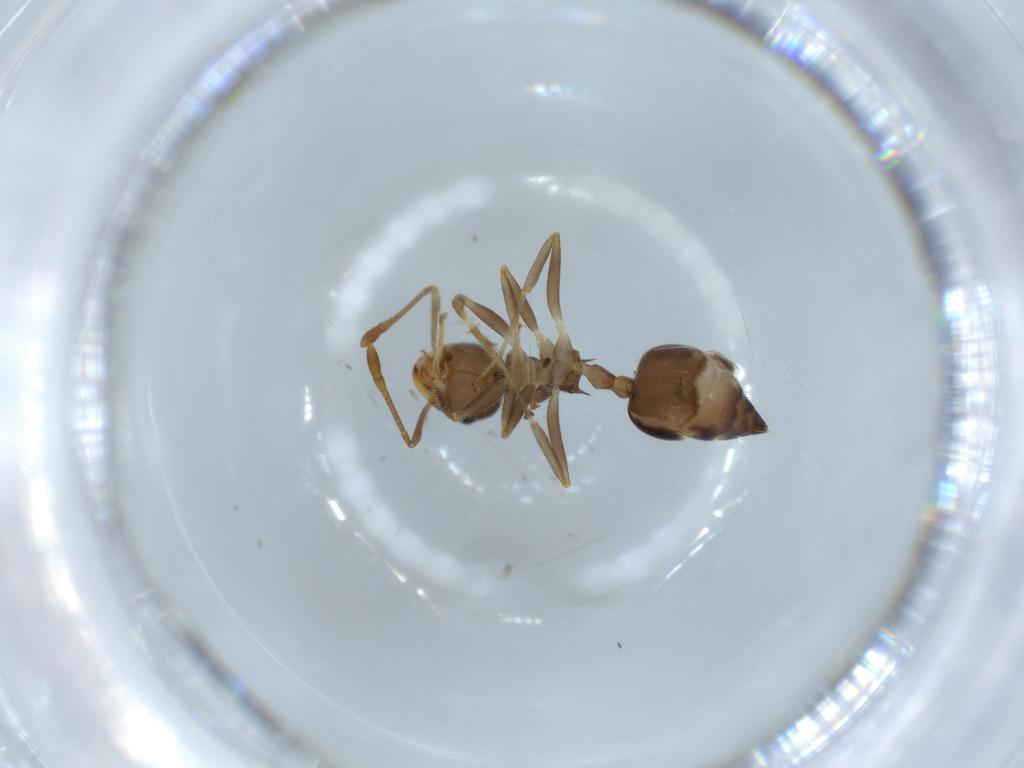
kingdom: Animalia
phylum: Arthropoda
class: Insecta
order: Hymenoptera
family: Formicidae
